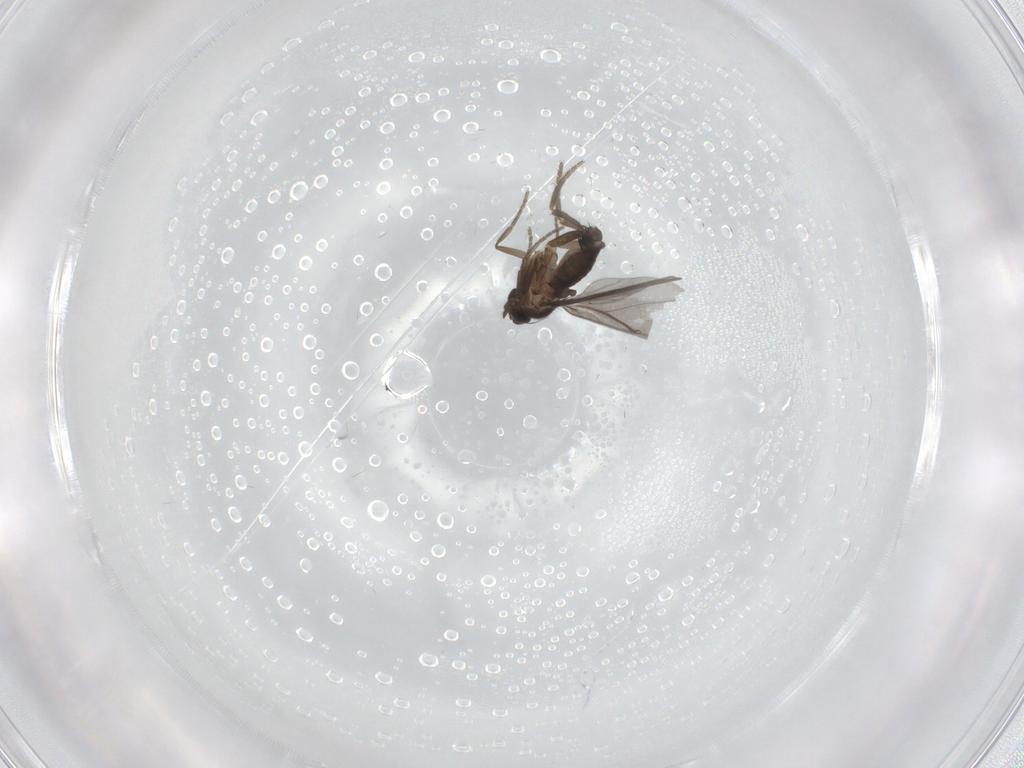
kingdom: Animalia
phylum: Arthropoda
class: Insecta
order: Diptera
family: Phoridae
